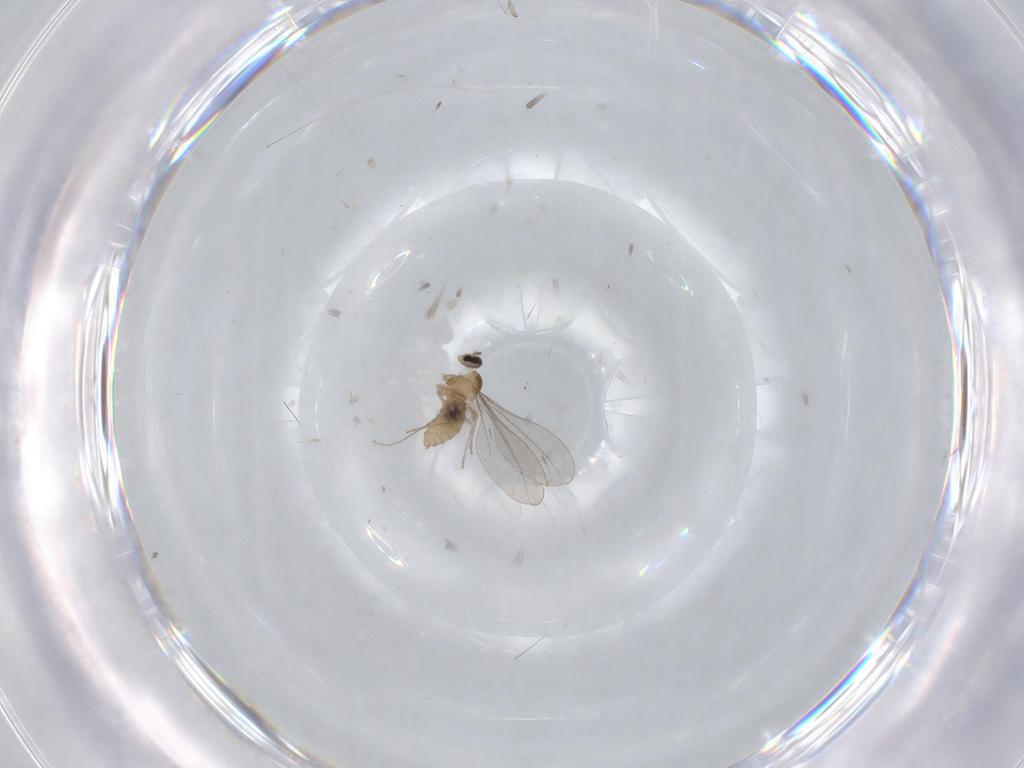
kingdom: Animalia
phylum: Arthropoda
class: Insecta
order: Diptera
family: Cecidomyiidae
